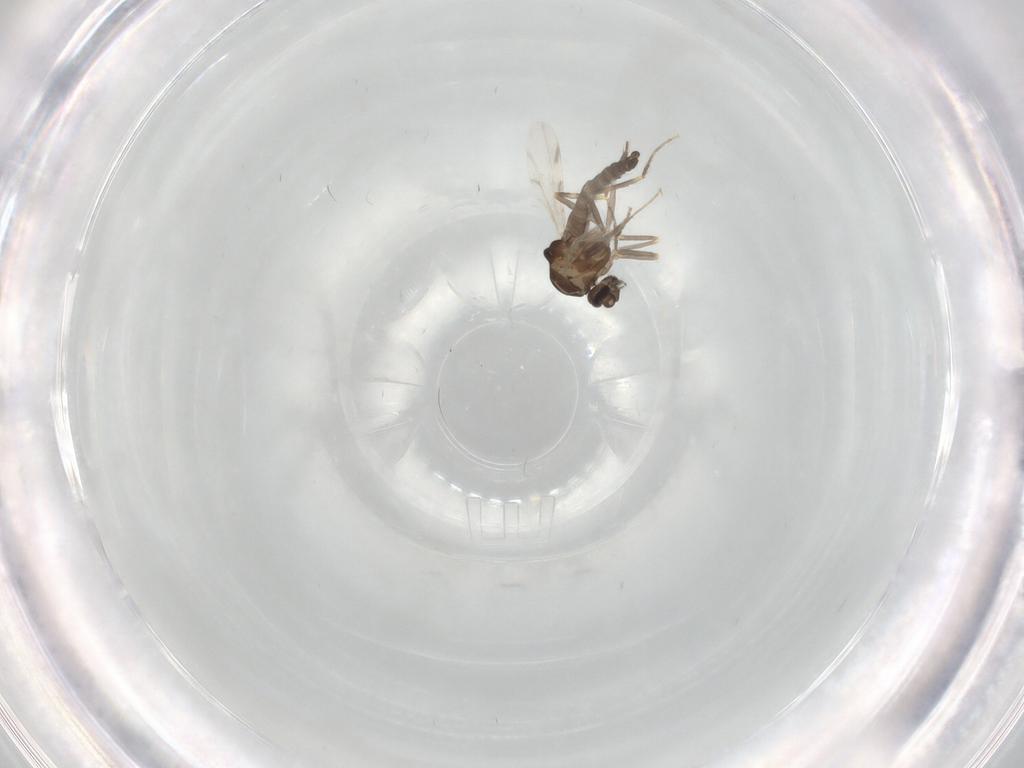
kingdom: Animalia
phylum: Arthropoda
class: Insecta
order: Diptera
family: Ceratopogonidae
